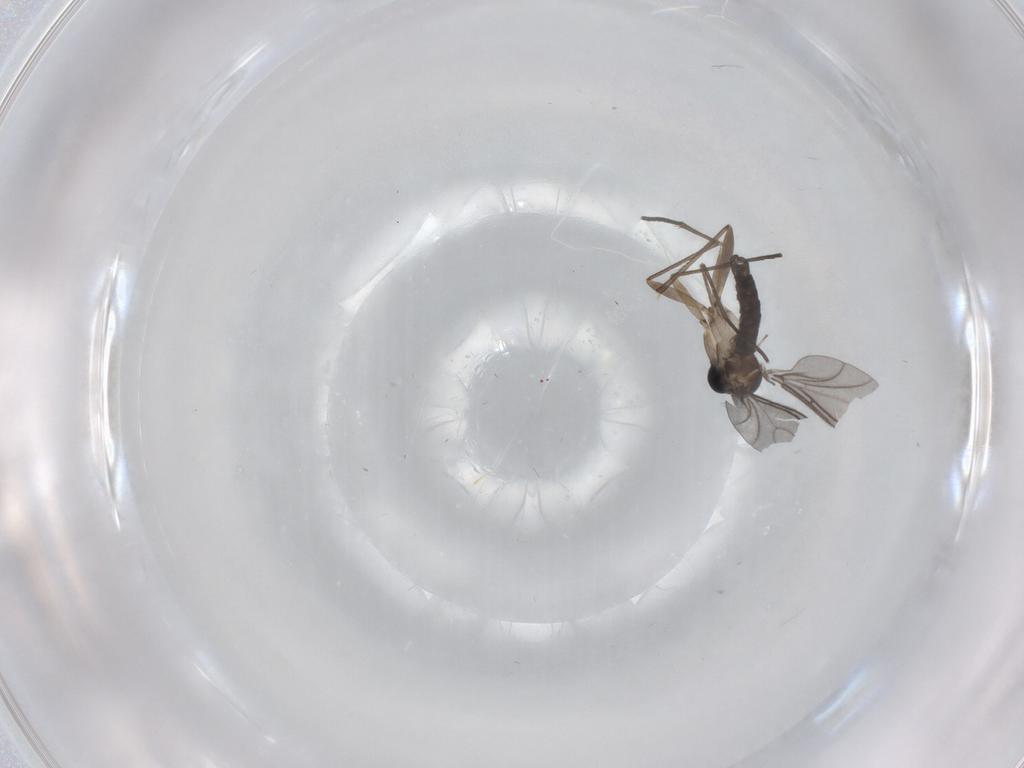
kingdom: Animalia
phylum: Arthropoda
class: Insecta
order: Diptera
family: Sciaridae
